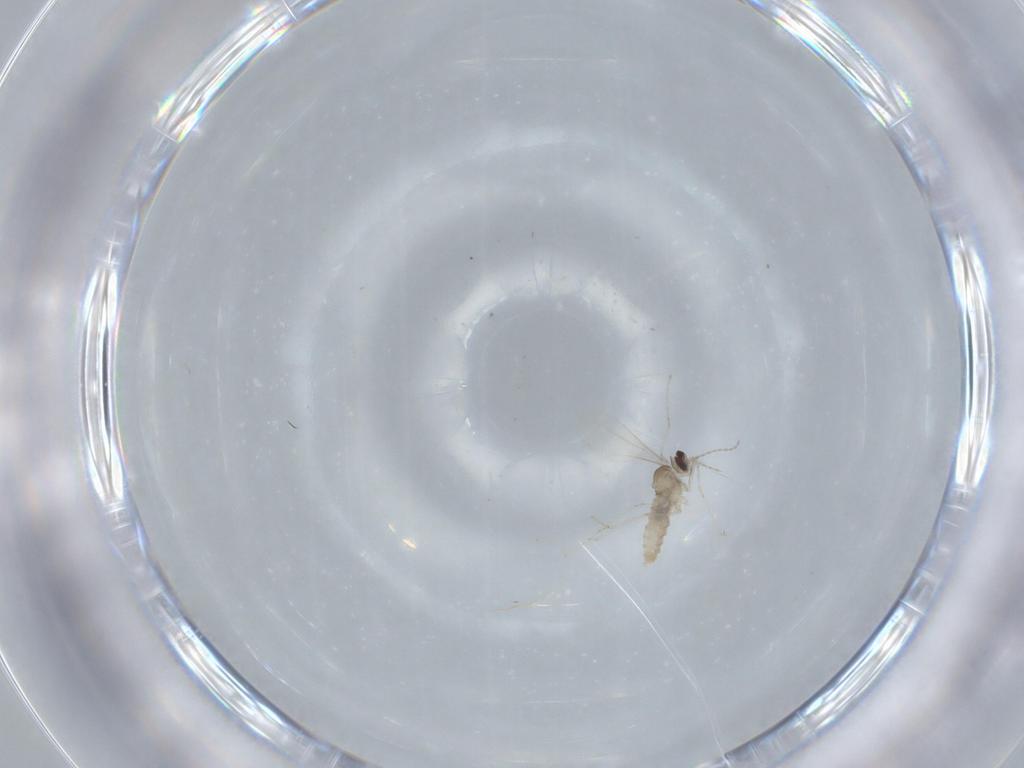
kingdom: Animalia
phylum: Arthropoda
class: Insecta
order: Diptera
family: Cecidomyiidae
